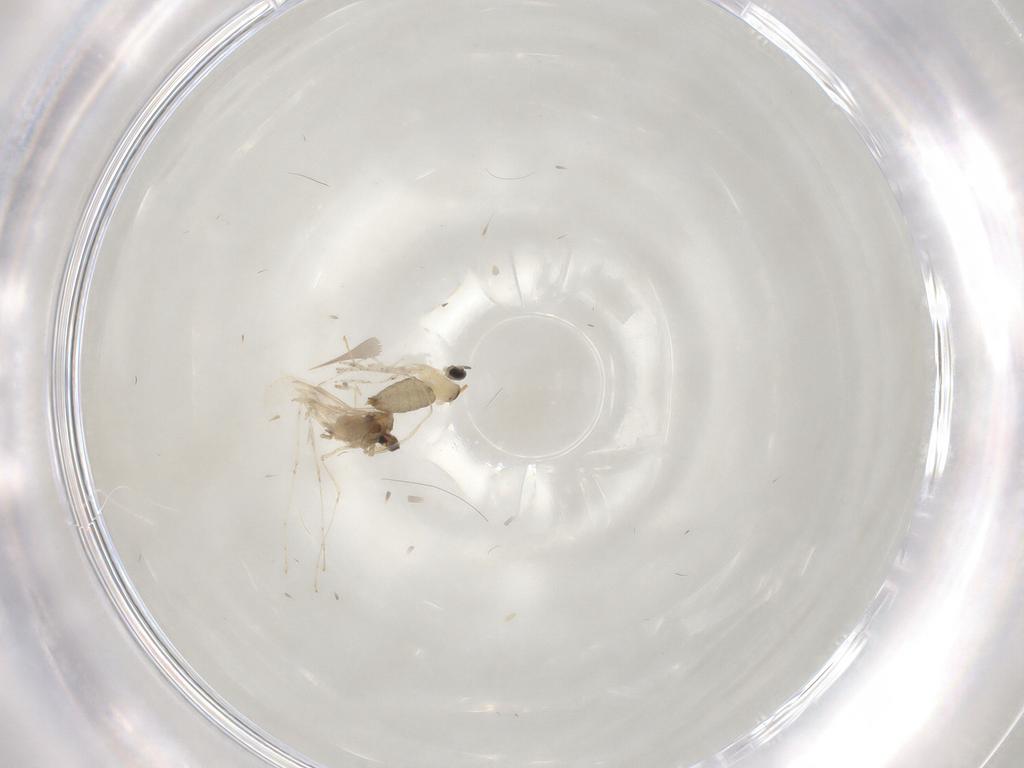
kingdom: Animalia
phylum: Arthropoda
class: Insecta
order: Diptera
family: Cecidomyiidae
